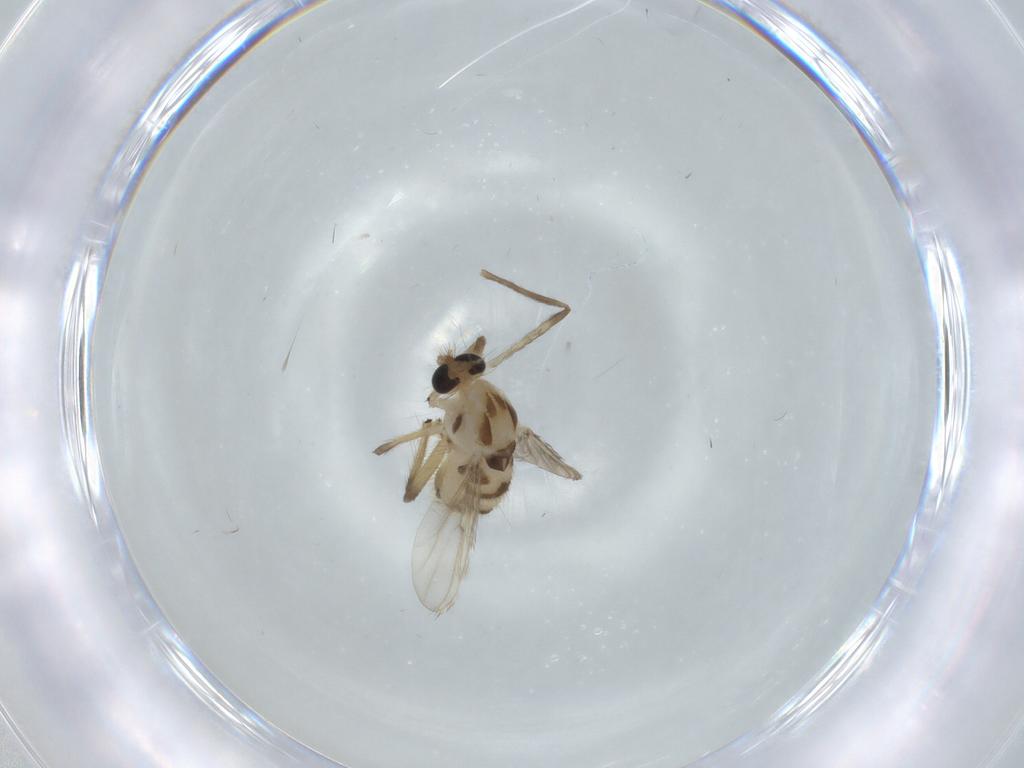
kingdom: Animalia
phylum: Arthropoda
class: Insecta
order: Diptera
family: Chironomidae
